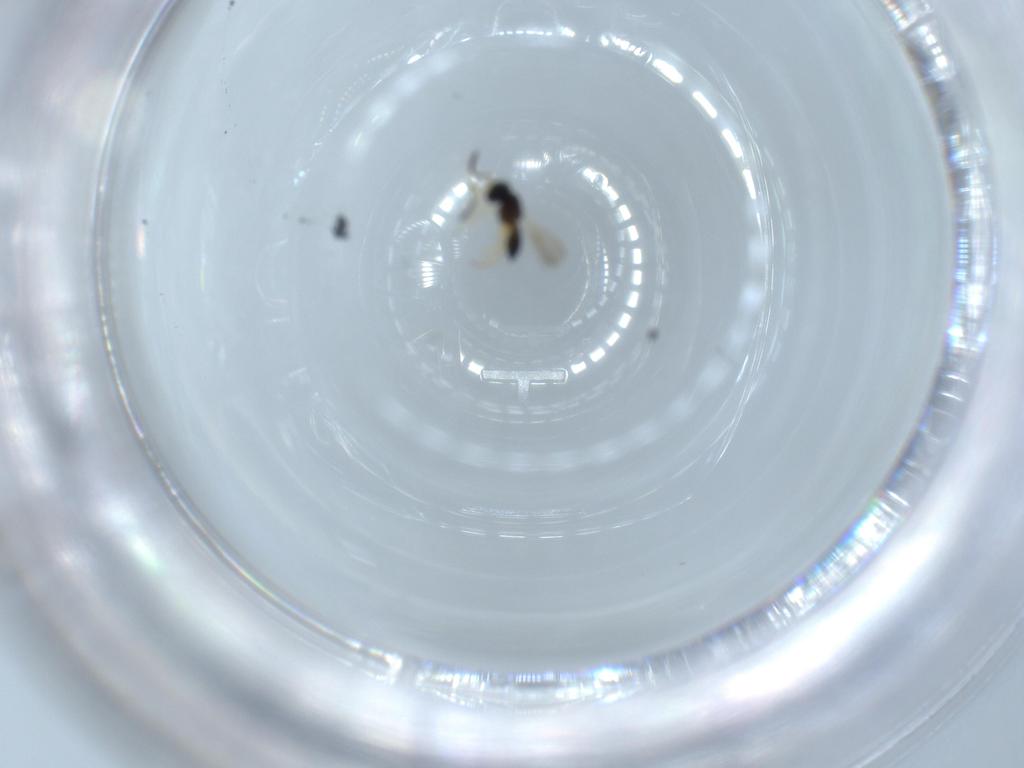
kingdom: Animalia
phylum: Arthropoda
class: Insecta
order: Hymenoptera
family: Scelionidae
